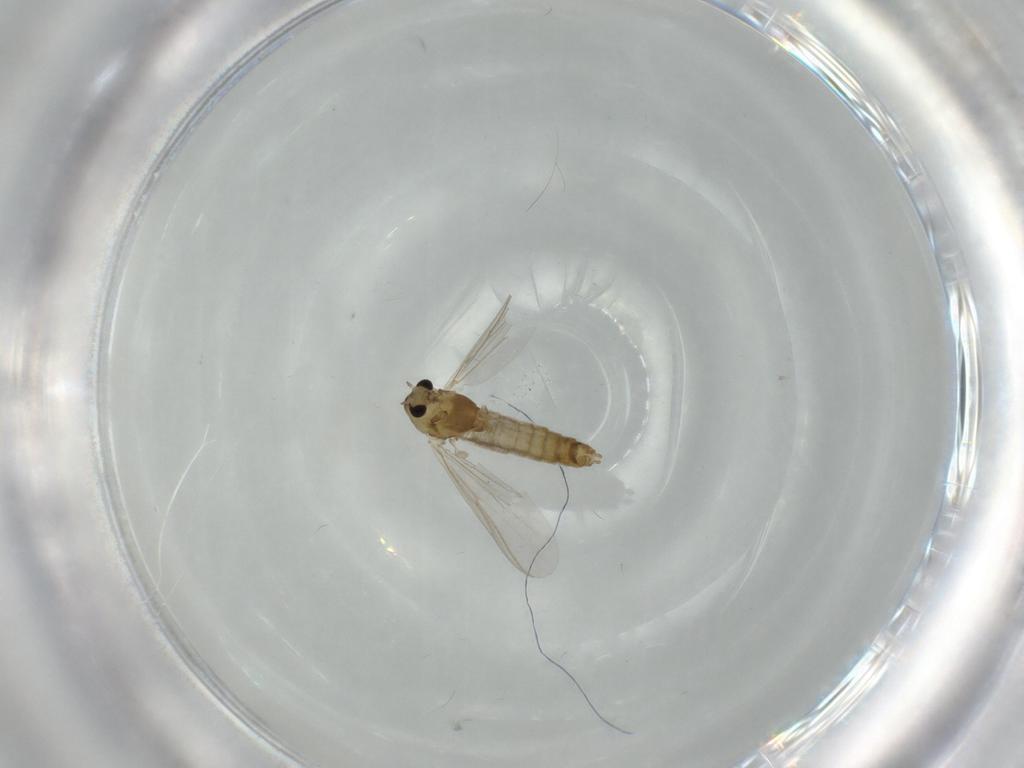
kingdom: Animalia
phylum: Arthropoda
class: Insecta
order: Diptera
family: Chironomidae
